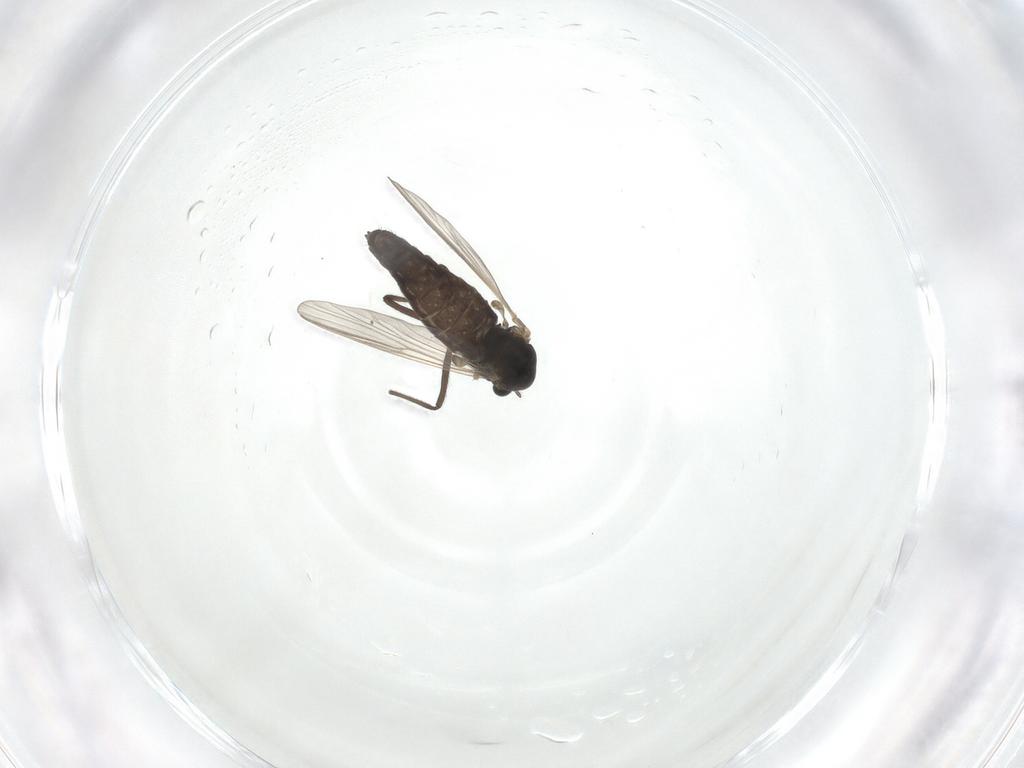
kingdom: Animalia
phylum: Arthropoda
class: Insecta
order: Diptera
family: Chironomidae
